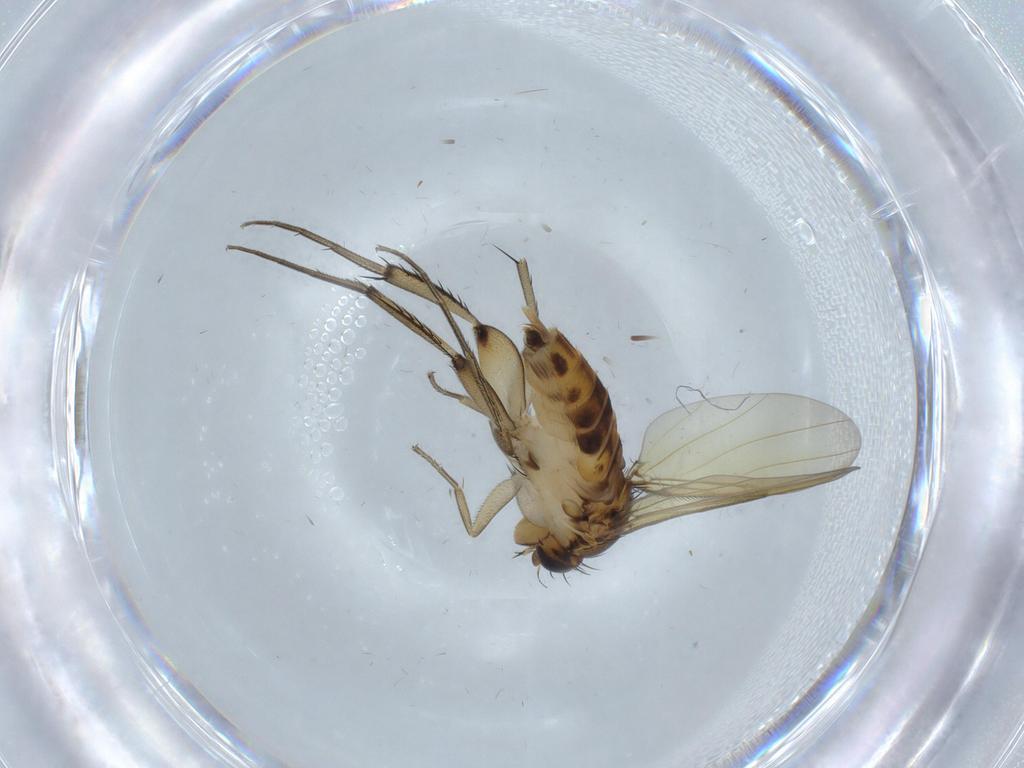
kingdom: Animalia
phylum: Arthropoda
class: Insecta
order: Diptera
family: Phoridae
